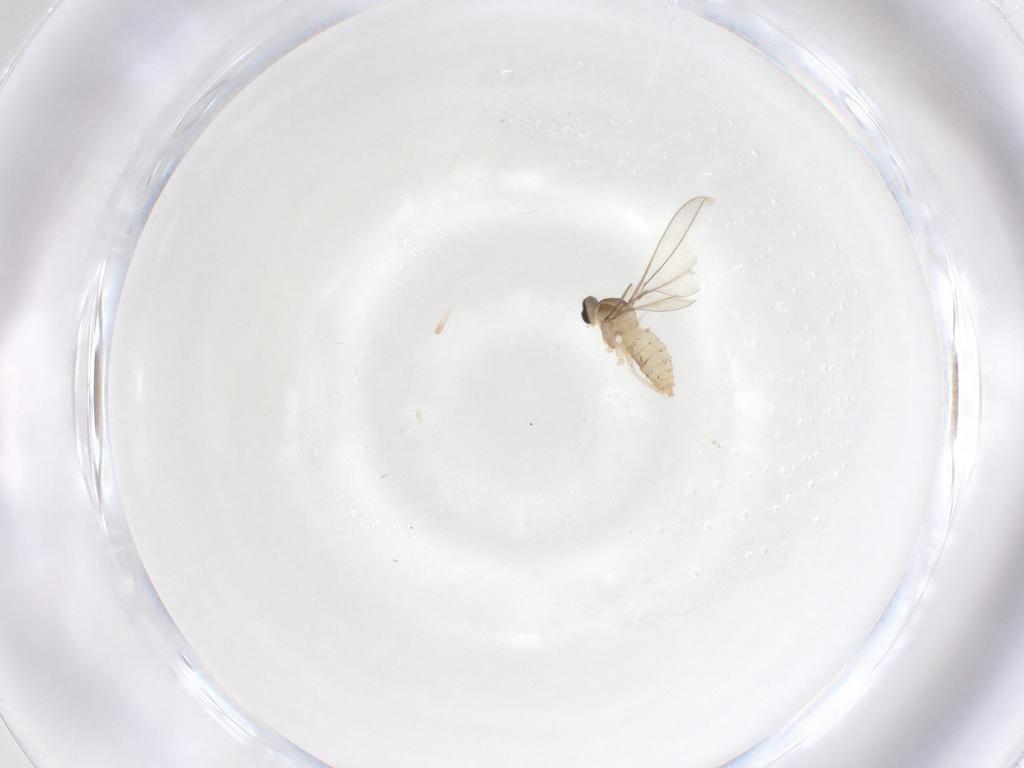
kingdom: Animalia
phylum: Arthropoda
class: Insecta
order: Diptera
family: Cecidomyiidae
